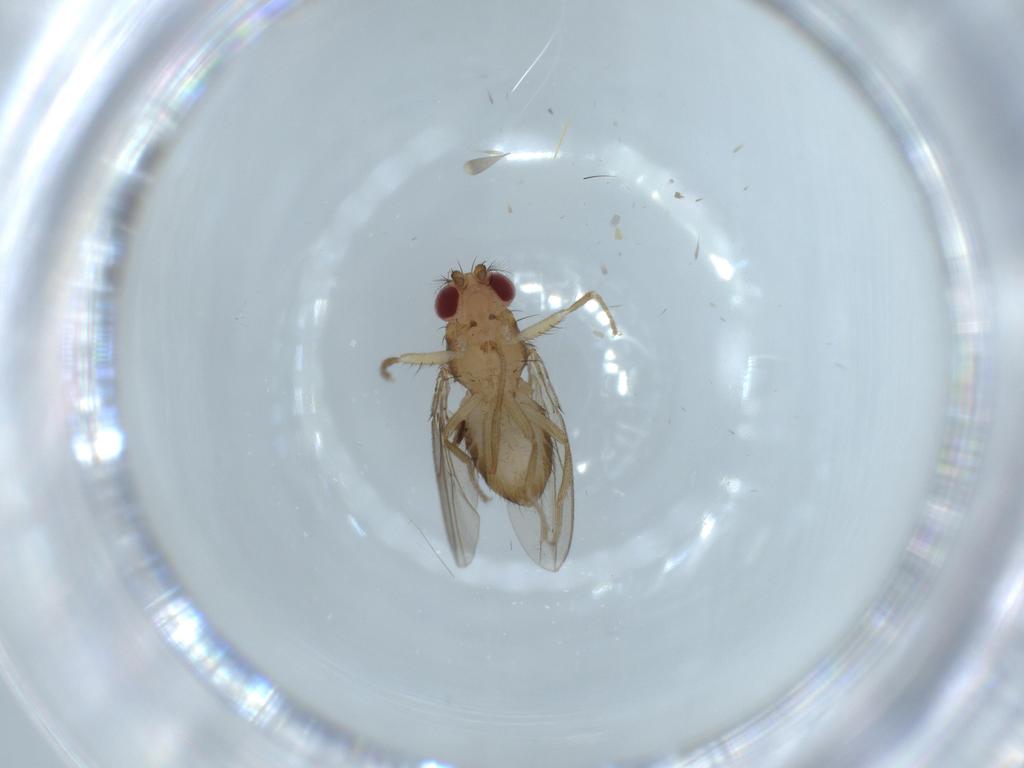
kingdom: Animalia
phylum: Arthropoda
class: Insecta
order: Diptera
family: Drosophilidae
